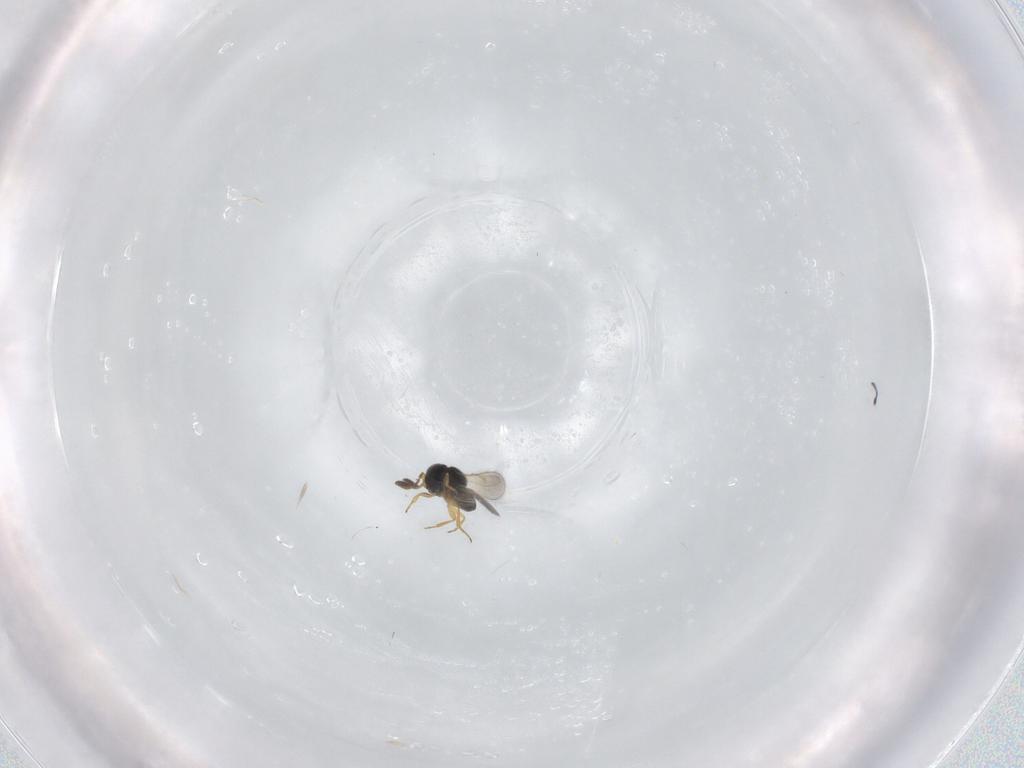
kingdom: Animalia
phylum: Arthropoda
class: Insecta
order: Hymenoptera
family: Scelionidae
